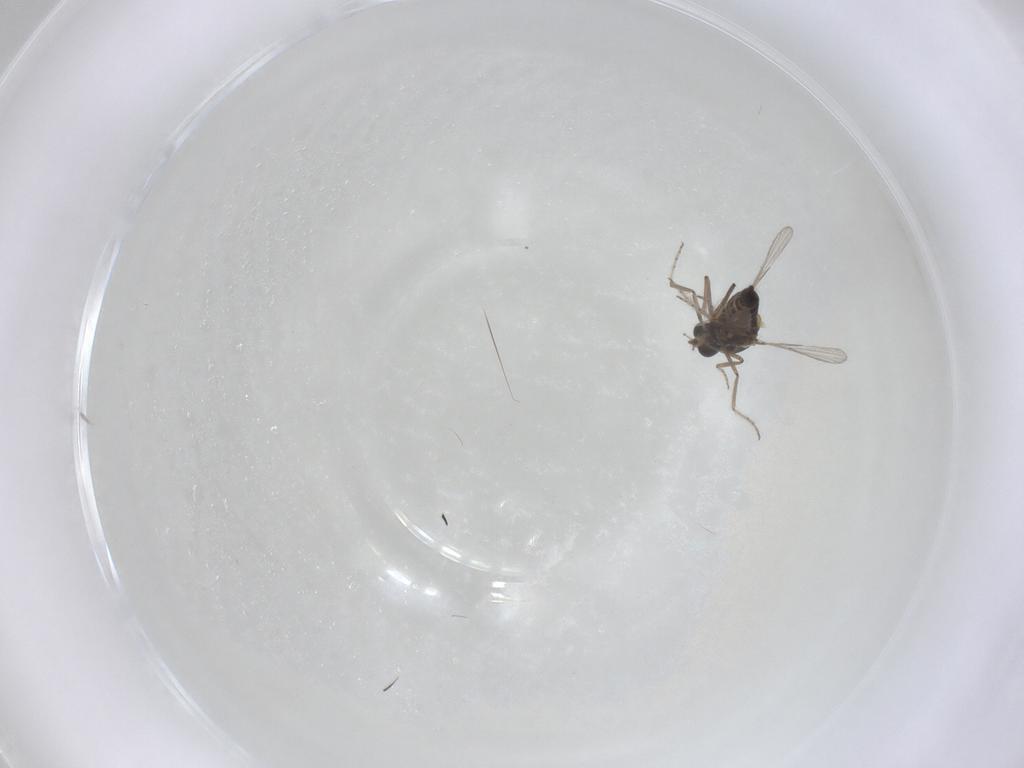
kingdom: Animalia
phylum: Arthropoda
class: Insecta
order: Diptera
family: Ceratopogonidae
